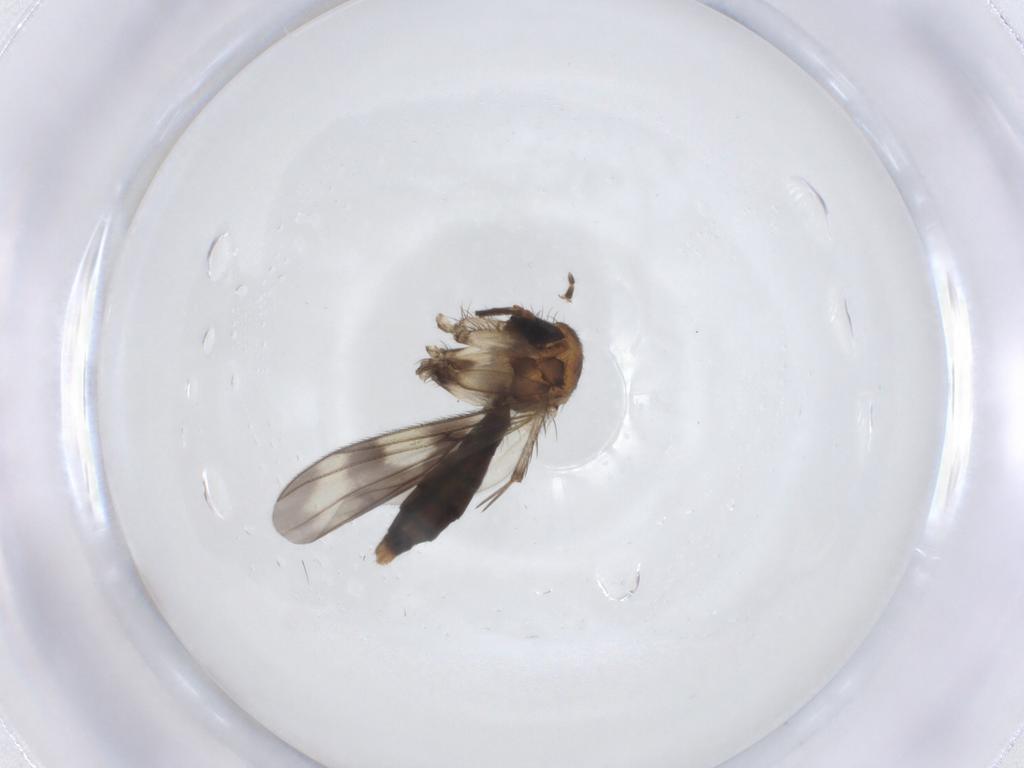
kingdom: Animalia
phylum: Arthropoda
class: Insecta
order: Diptera
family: Mycetophilidae
